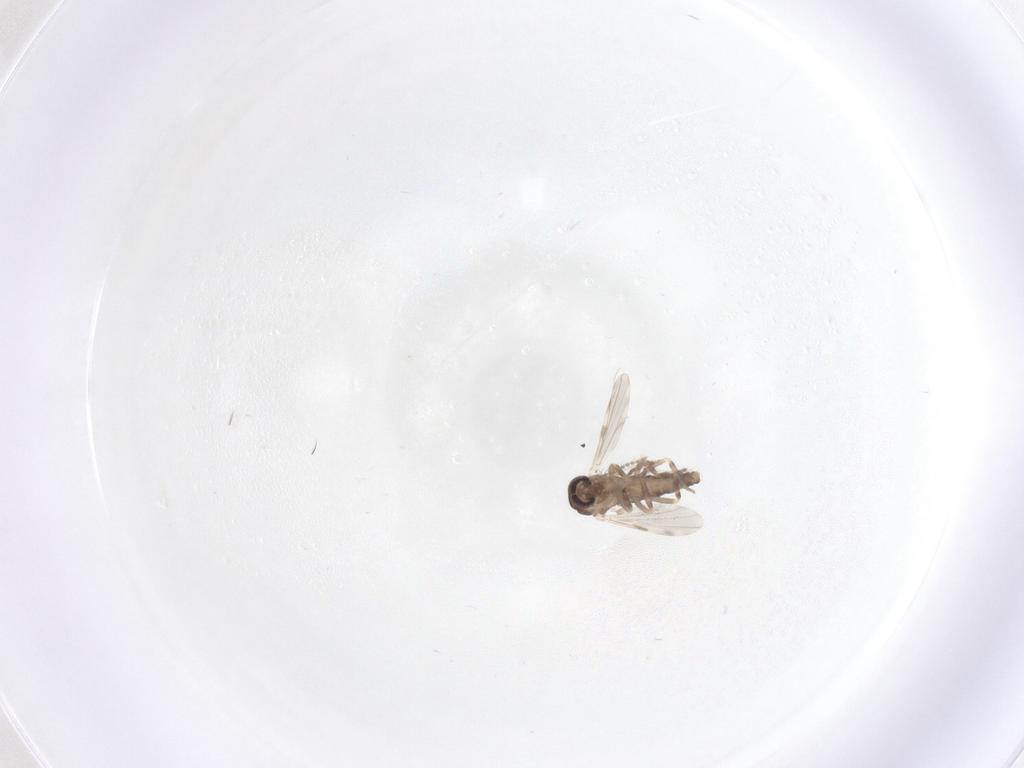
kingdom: Animalia
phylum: Arthropoda
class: Insecta
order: Diptera
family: Ceratopogonidae
